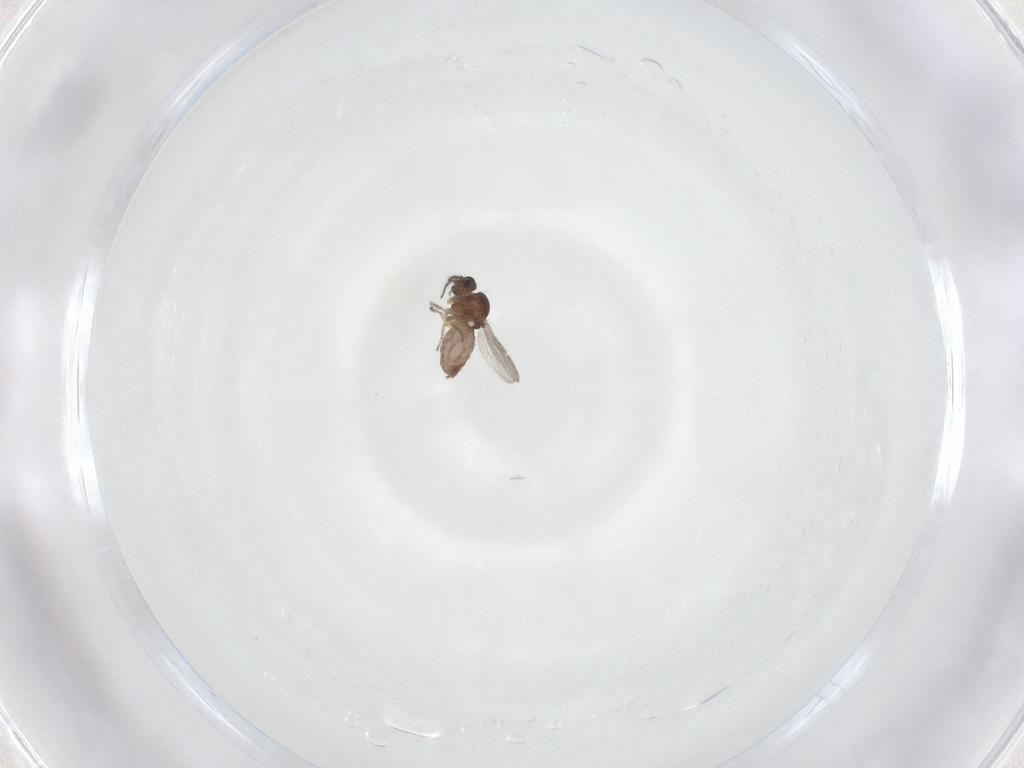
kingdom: Animalia
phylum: Arthropoda
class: Insecta
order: Diptera
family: Ceratopogonidae
